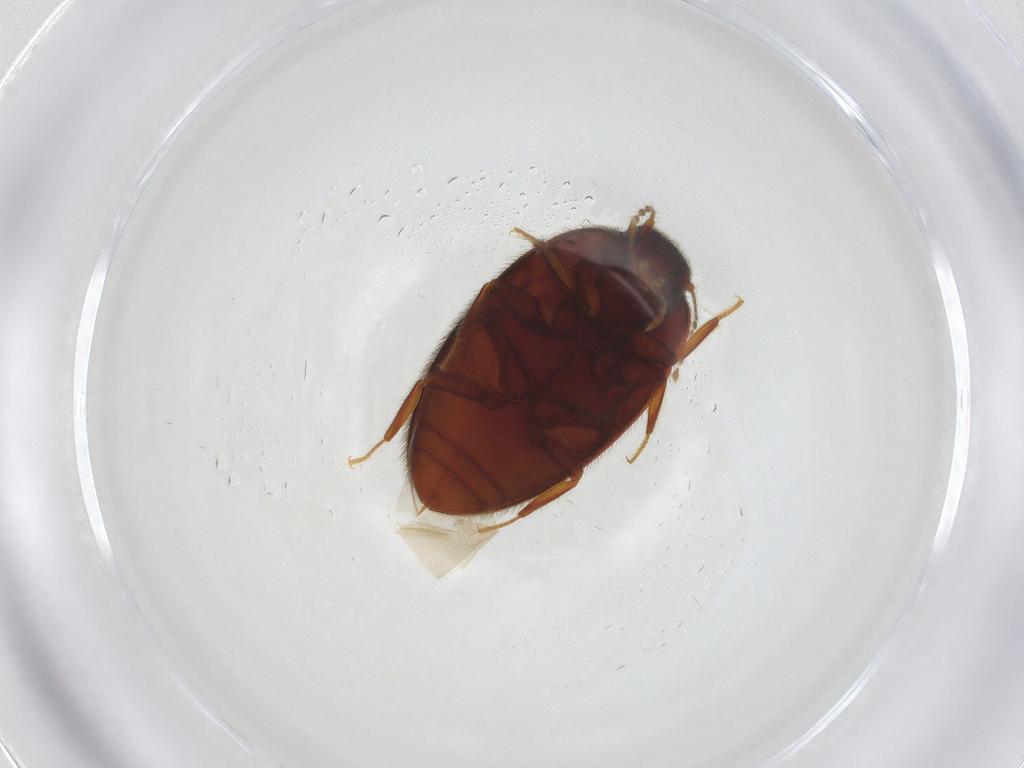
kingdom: Animalia
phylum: Arthropoda
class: Insecta
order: Coleoptera
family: Limnichidae
